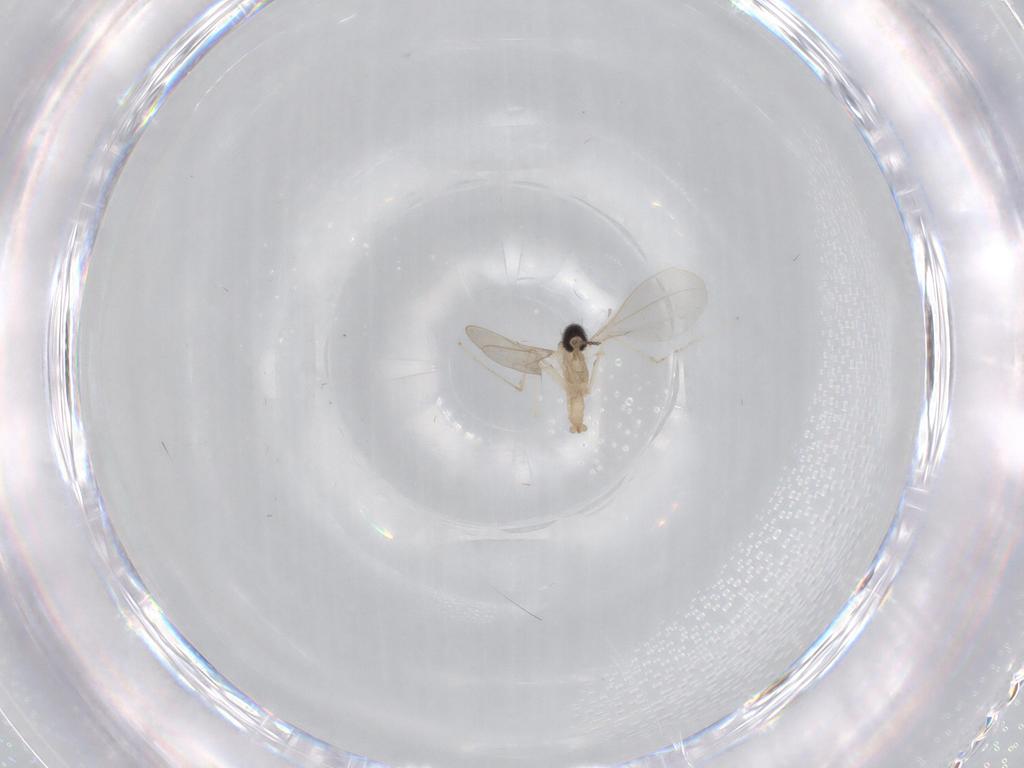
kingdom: Animalia
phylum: Arthropoda
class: Insecta
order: Diptera
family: Cecidomyiidae
